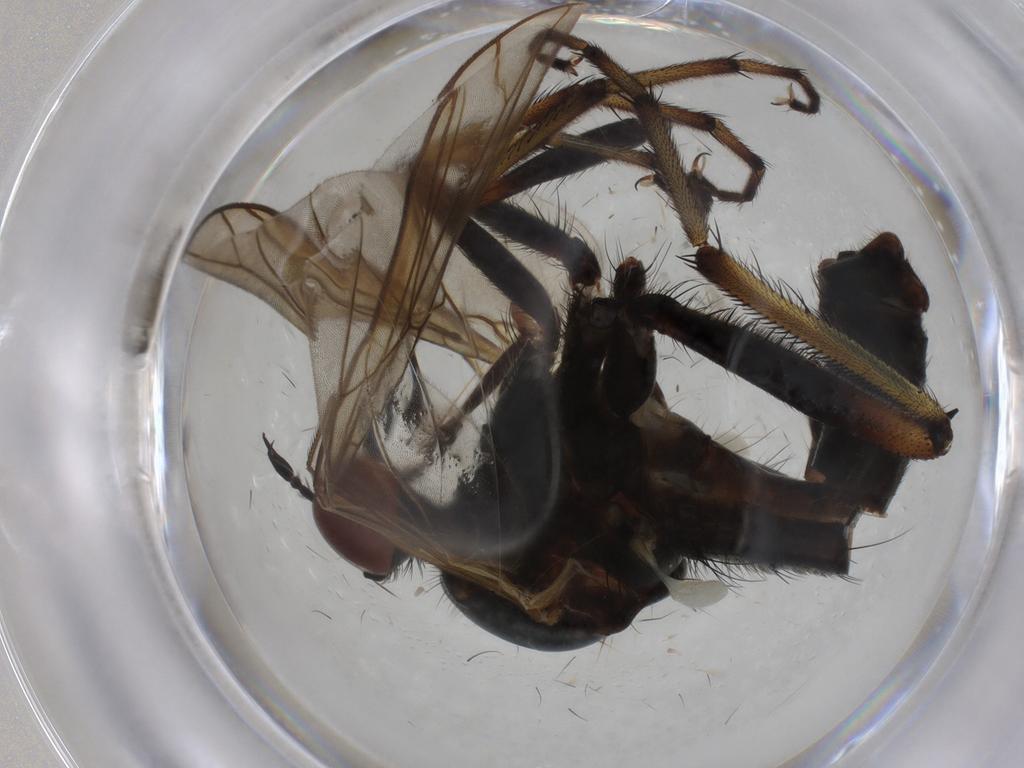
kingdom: Animalia
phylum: Arthropoda
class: Insecta
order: Diptera
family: Empididae
